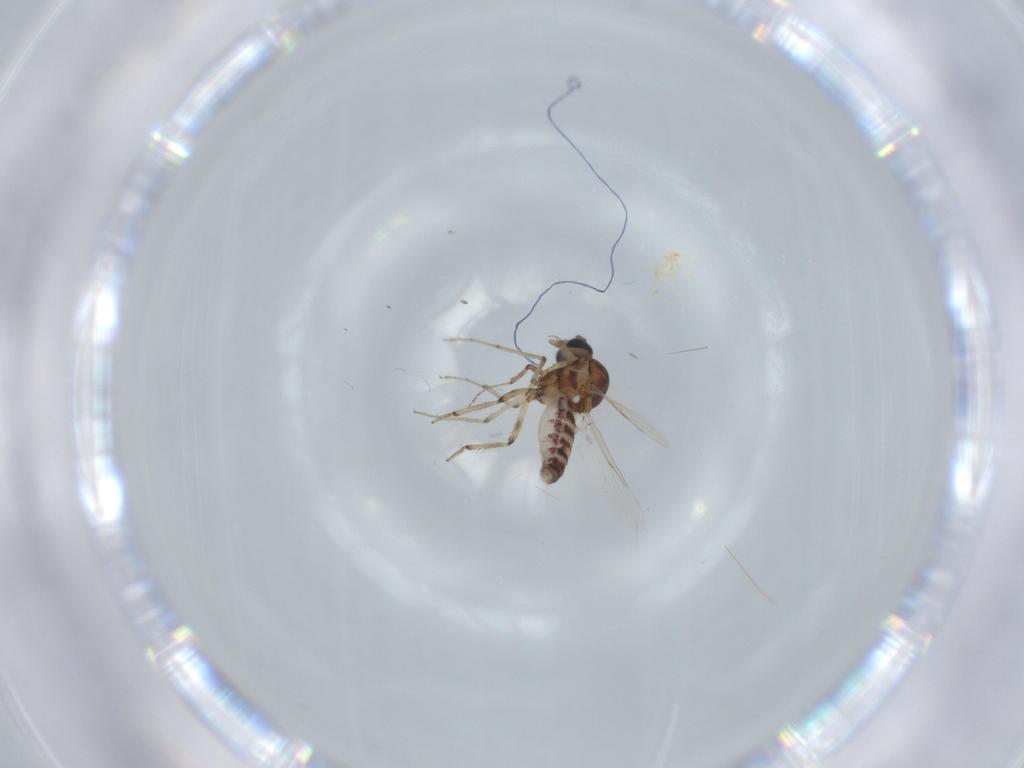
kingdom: Animalia
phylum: Arthropoda
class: Insecta
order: Diptera
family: Ceratopogonidae
